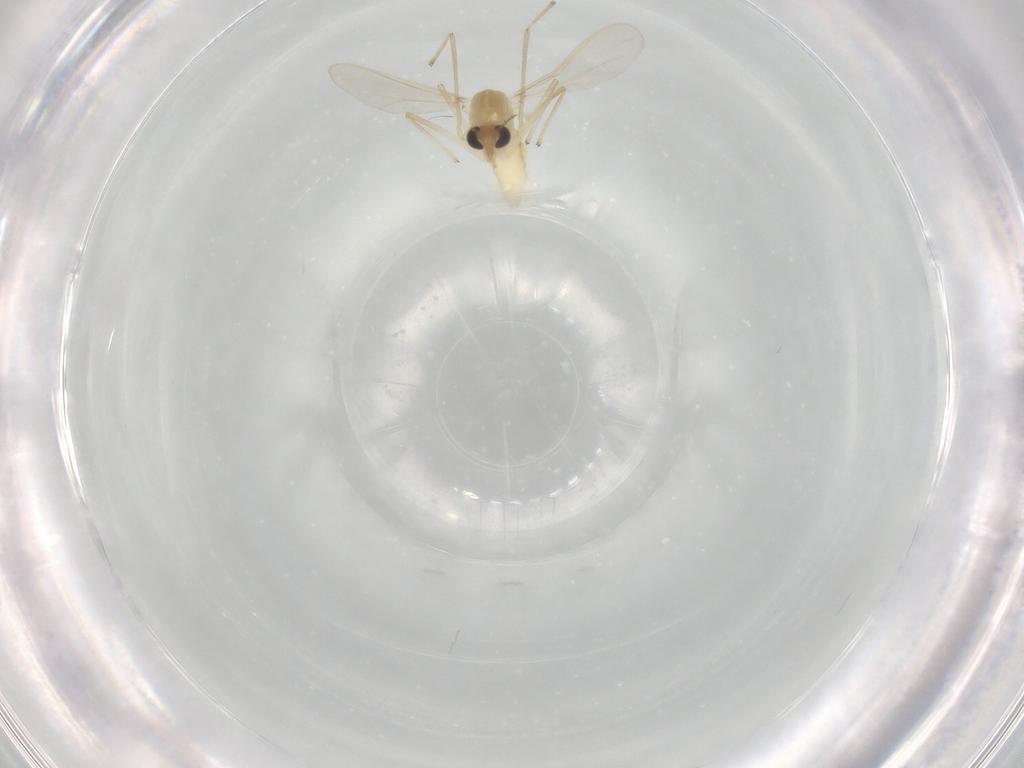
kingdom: Animalia
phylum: Arthropoda
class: Insecta
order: Diptera
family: Chironomidae
